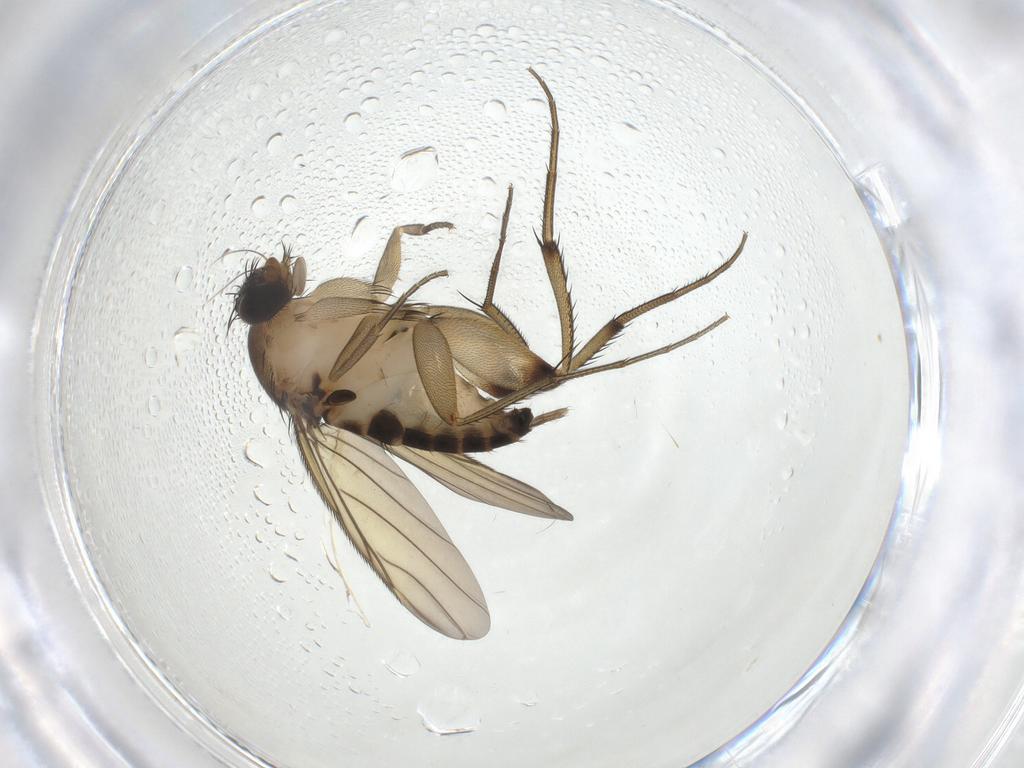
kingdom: Animalia
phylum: Arthropoda
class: Insecta
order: Diptera
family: Phoridae
